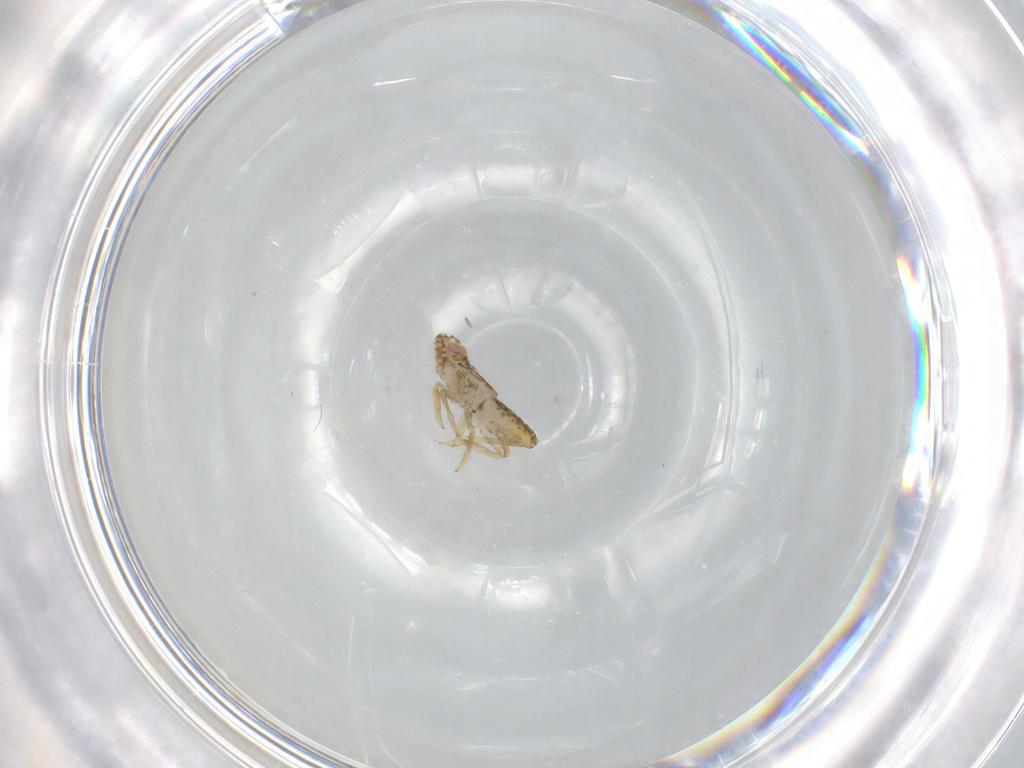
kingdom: Animalia
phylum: Arthropoda
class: Insecta
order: Hemiptera
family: Delphacidae
